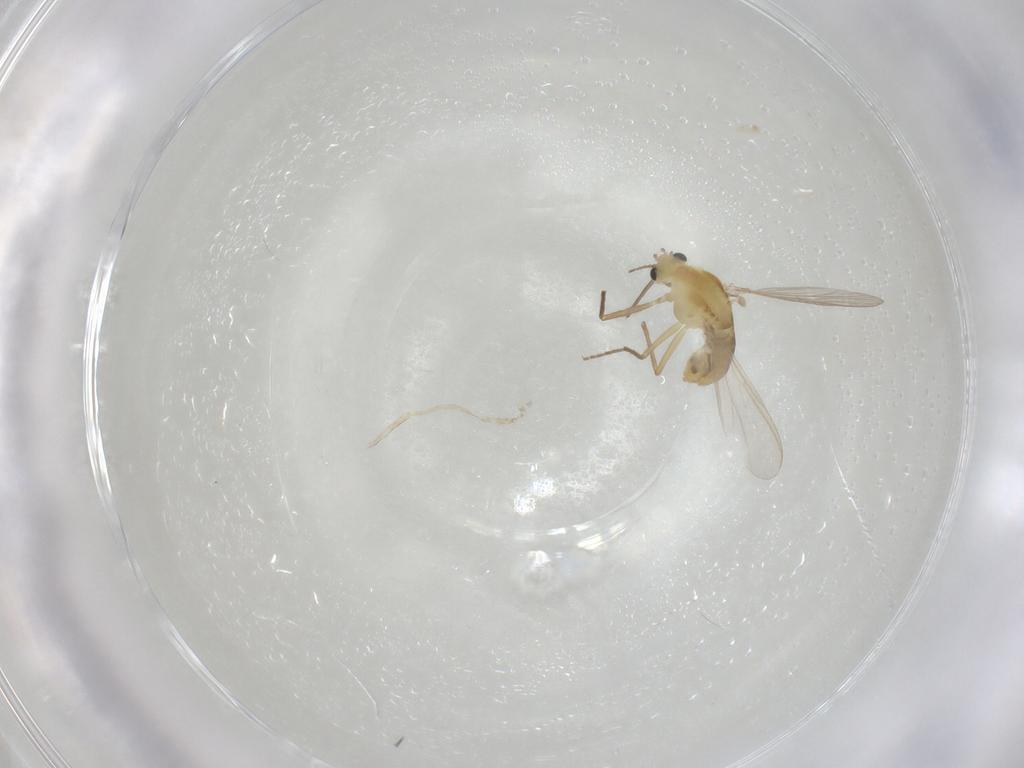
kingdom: Animalia
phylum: Arthropoda
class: Insecta
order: Diptera
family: Chironomidae
